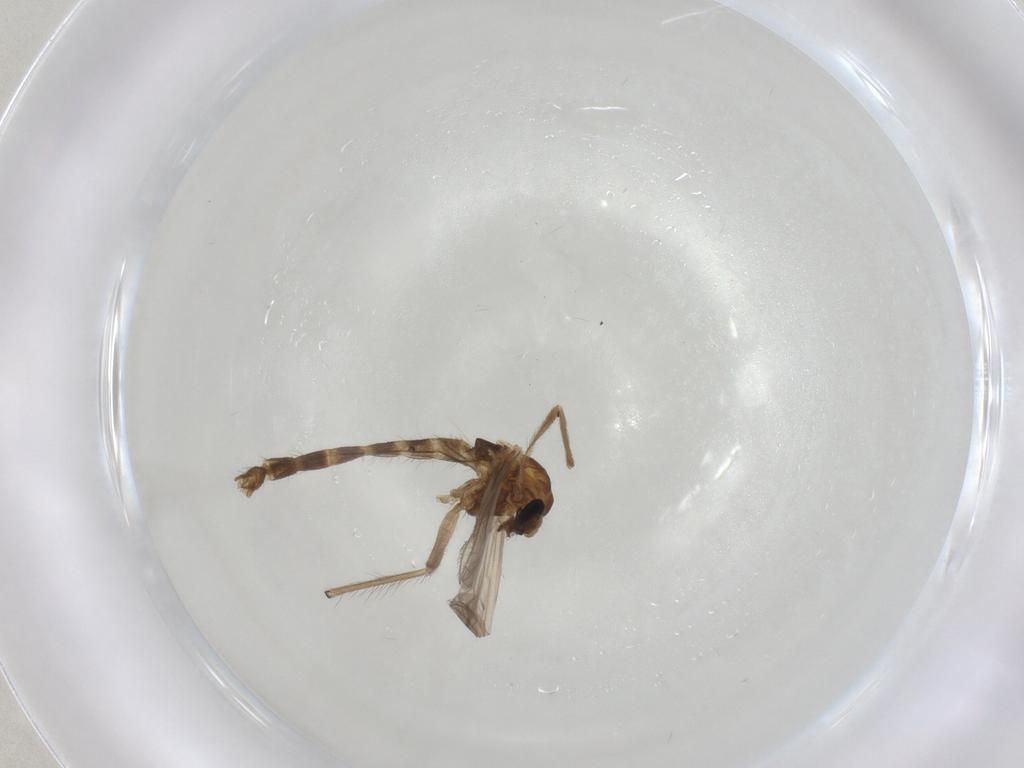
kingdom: Animalia
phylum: Arthropoda
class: Insecta
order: Diptera
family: Chironomidae
